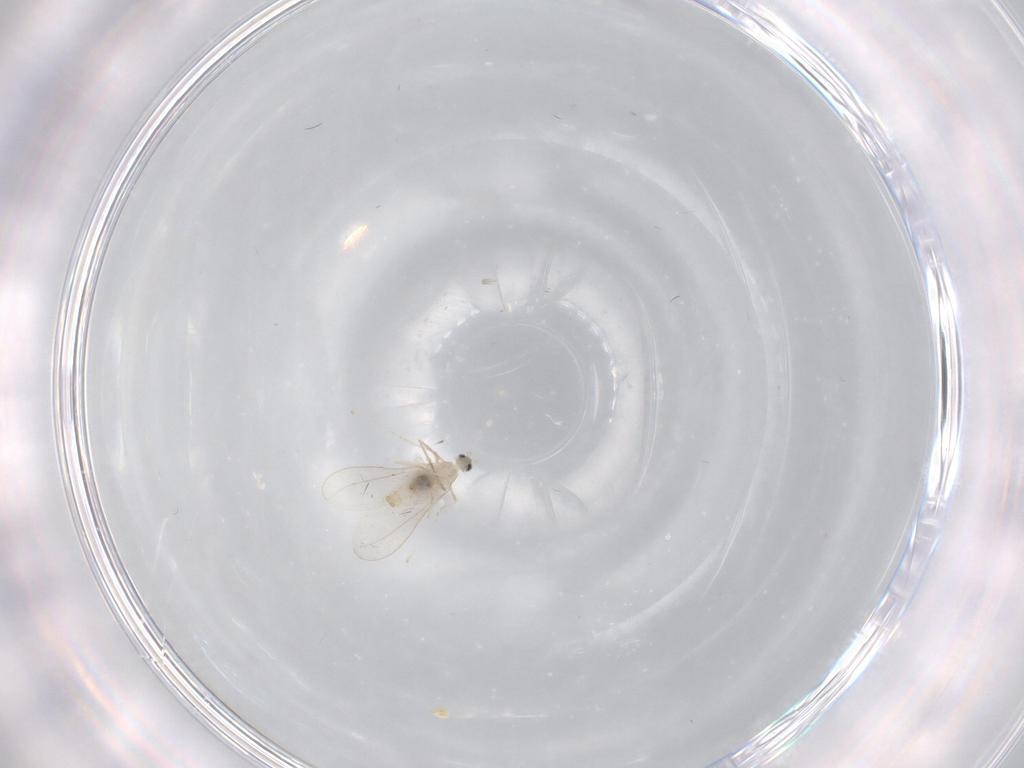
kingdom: Animalia
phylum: Arthropoda
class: Insecta
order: Diptera
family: Cecidomyiidae
